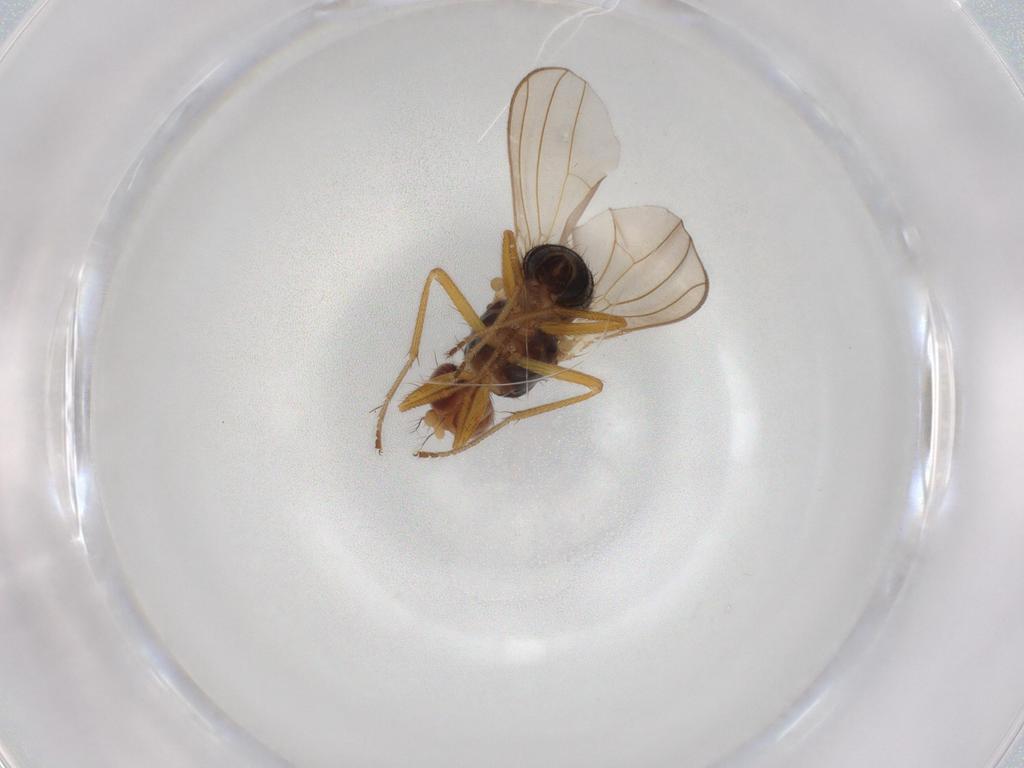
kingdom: Animalia
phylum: Arthropoda
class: Insecta
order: Diptera
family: Drosophilidae
